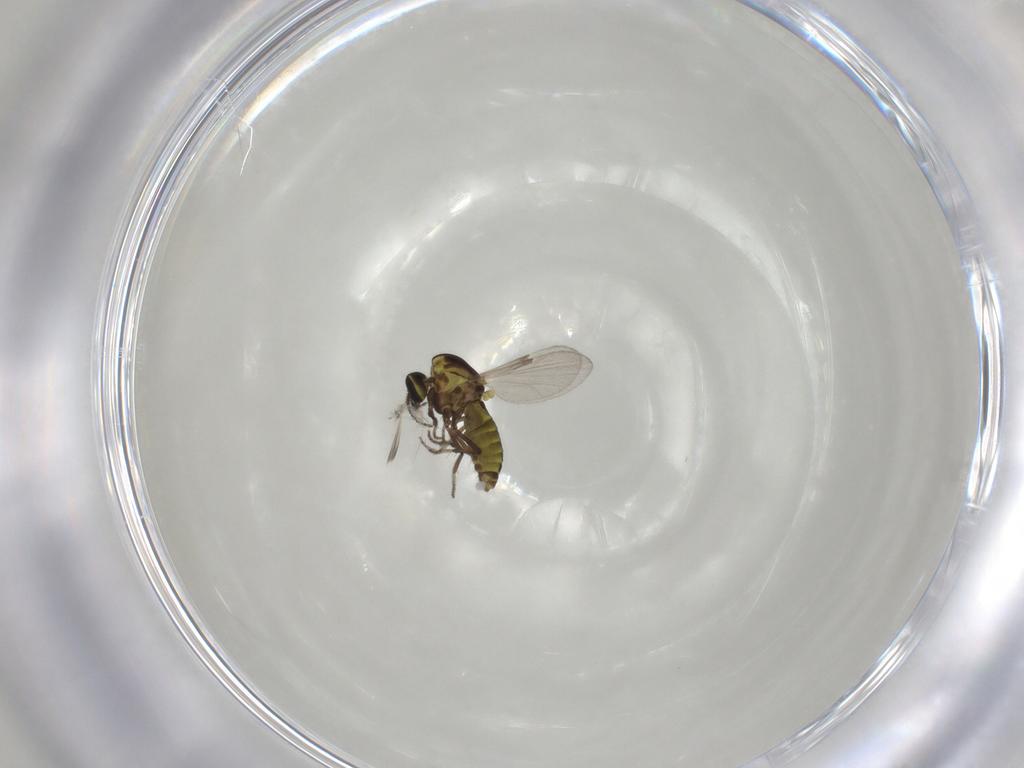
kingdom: Animalia
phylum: Arthropoda
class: Insecta
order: Diptera
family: Ceratopogonidae
